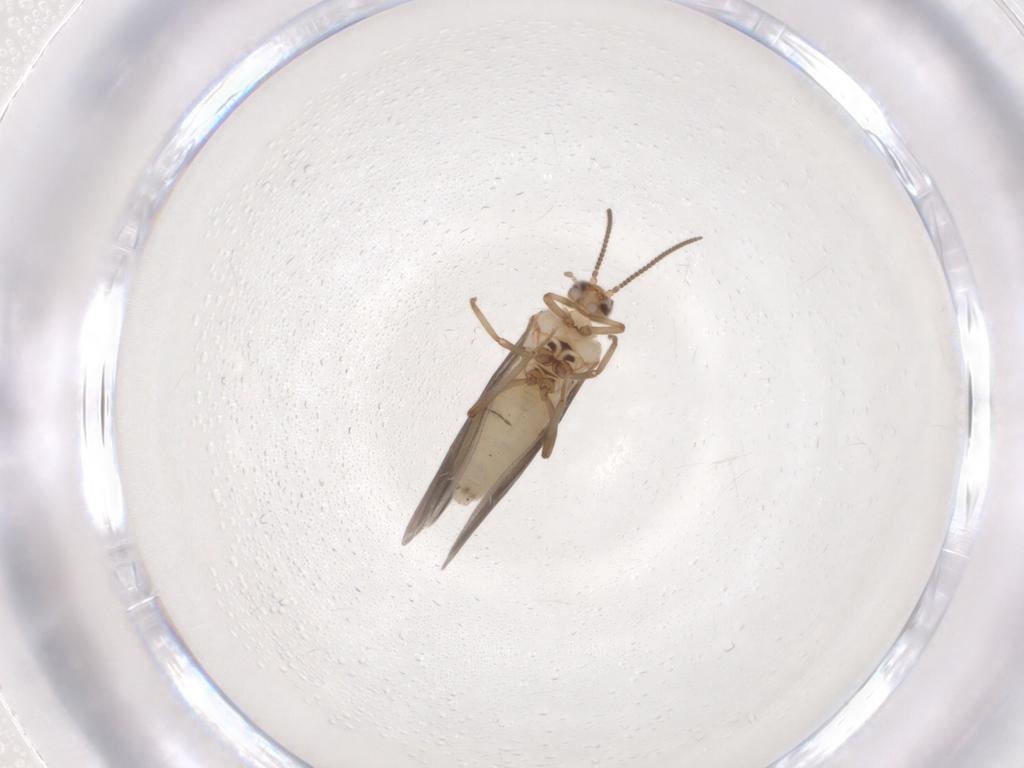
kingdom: Animalia
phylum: Arthropoda
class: Insecta
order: Neuroptera
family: Coniopterygidae
